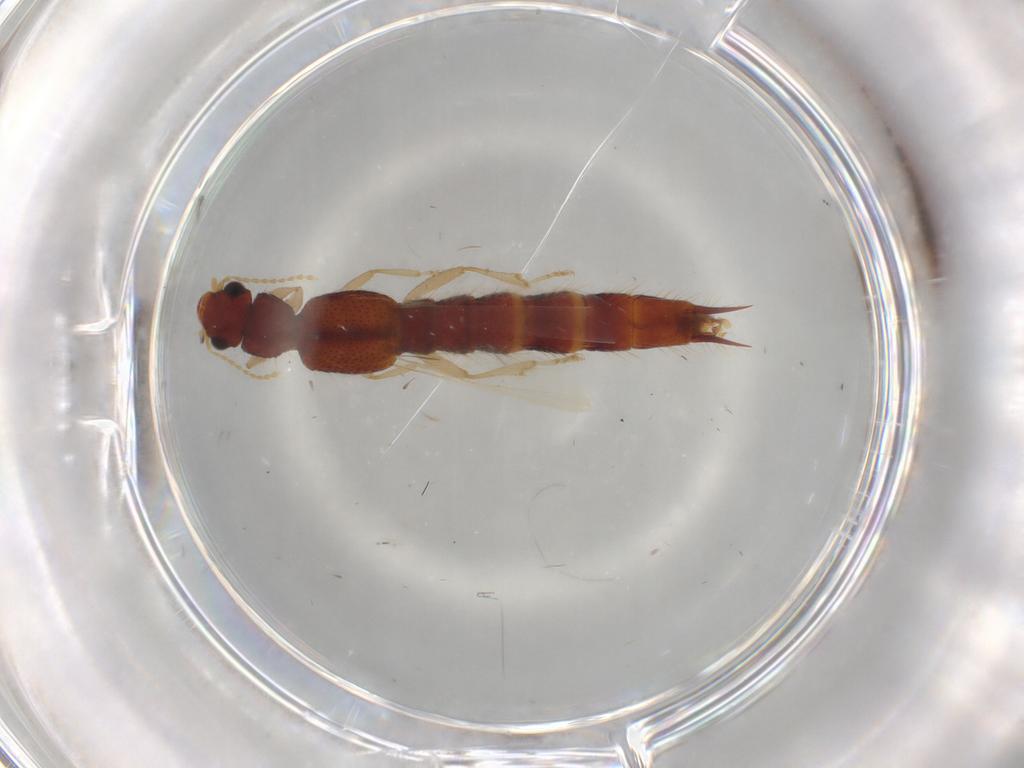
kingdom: Animalia
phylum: Arthropoda
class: Insecta
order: Coleoptera
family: Staphylinidae
